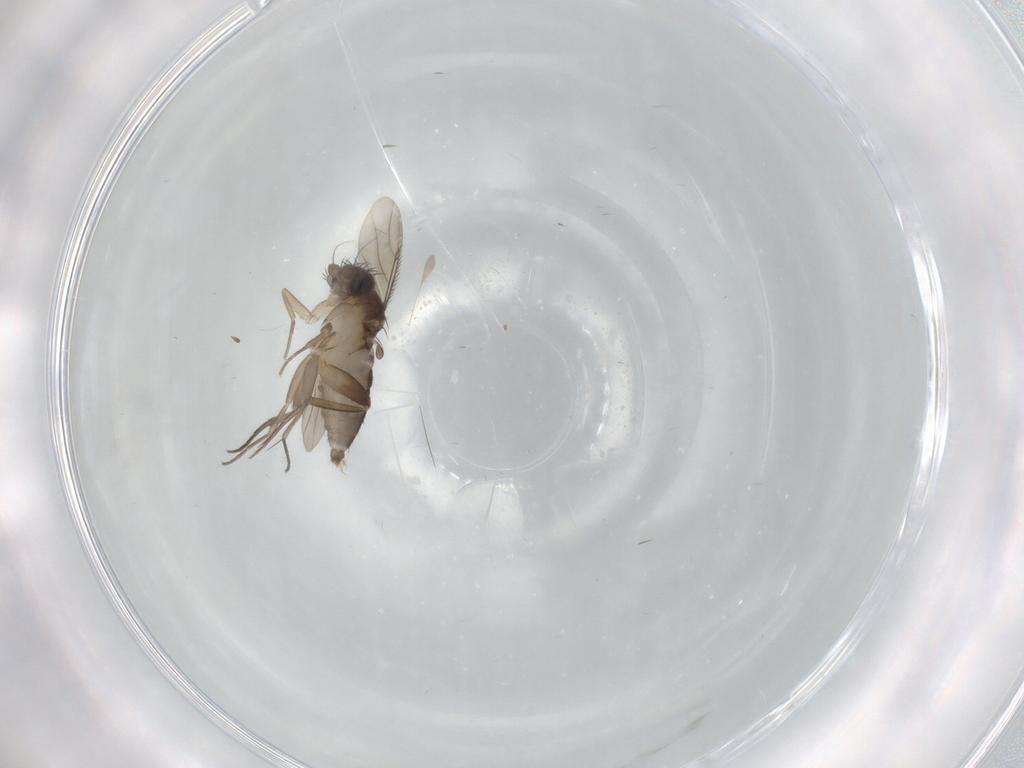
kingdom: Animalia
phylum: Arthropoda
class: Insecta
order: Diptera
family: Phoridae
